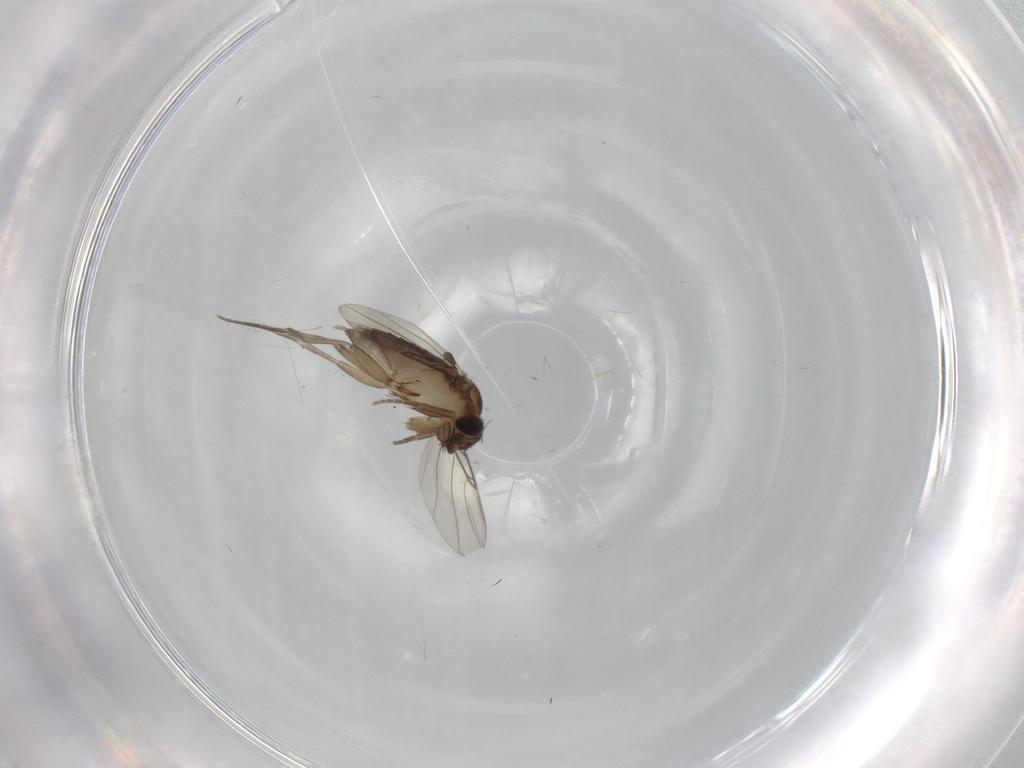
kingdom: Animalia
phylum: Arthropoda
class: Insecta
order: Diptera
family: Phoridae
